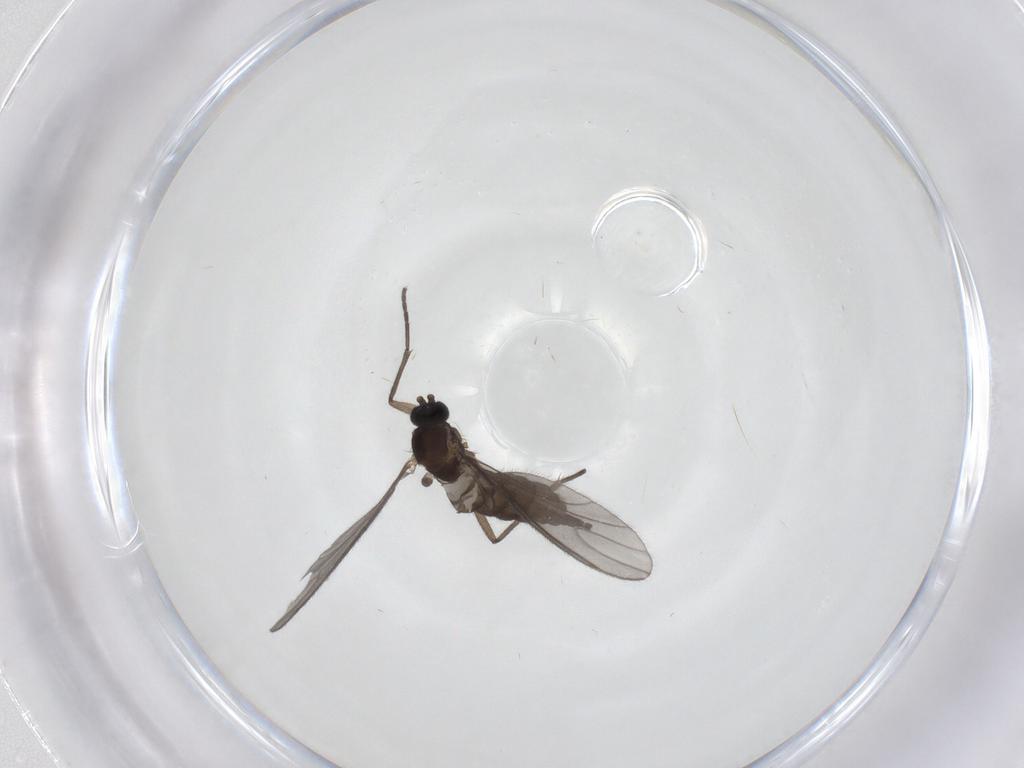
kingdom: Animalia
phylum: Arthropoda
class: Insecta
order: Diptera
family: Sciaridae
